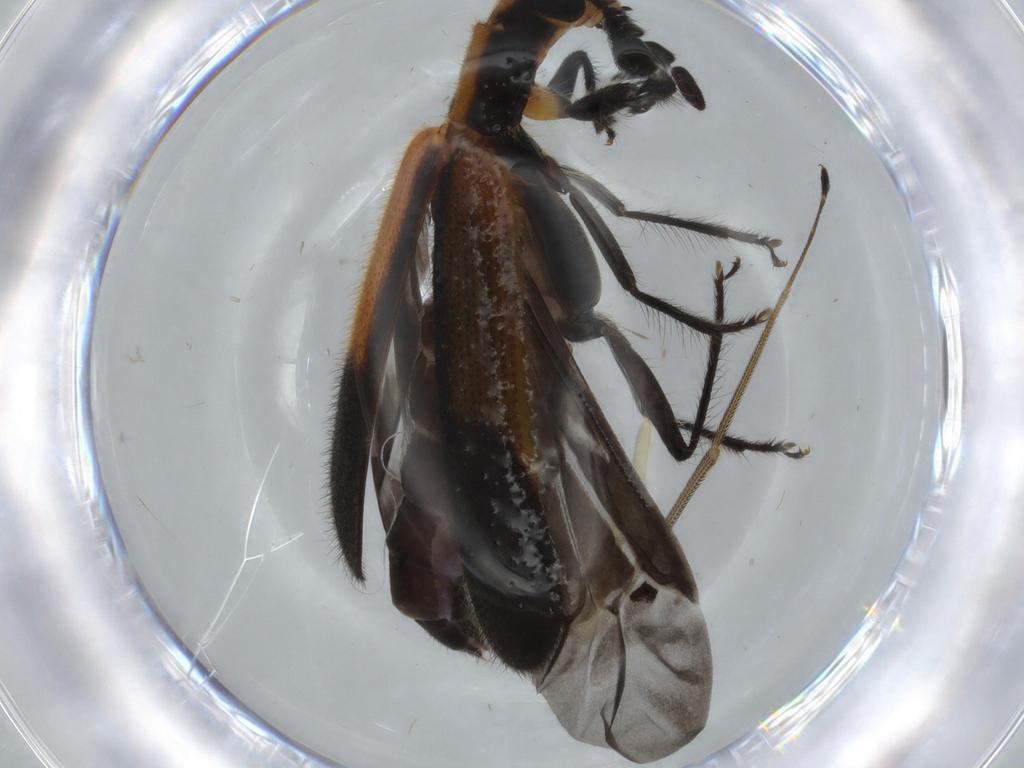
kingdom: Animalia
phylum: Arthropoda
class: Insecta
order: Coleoptera
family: Cleridae
